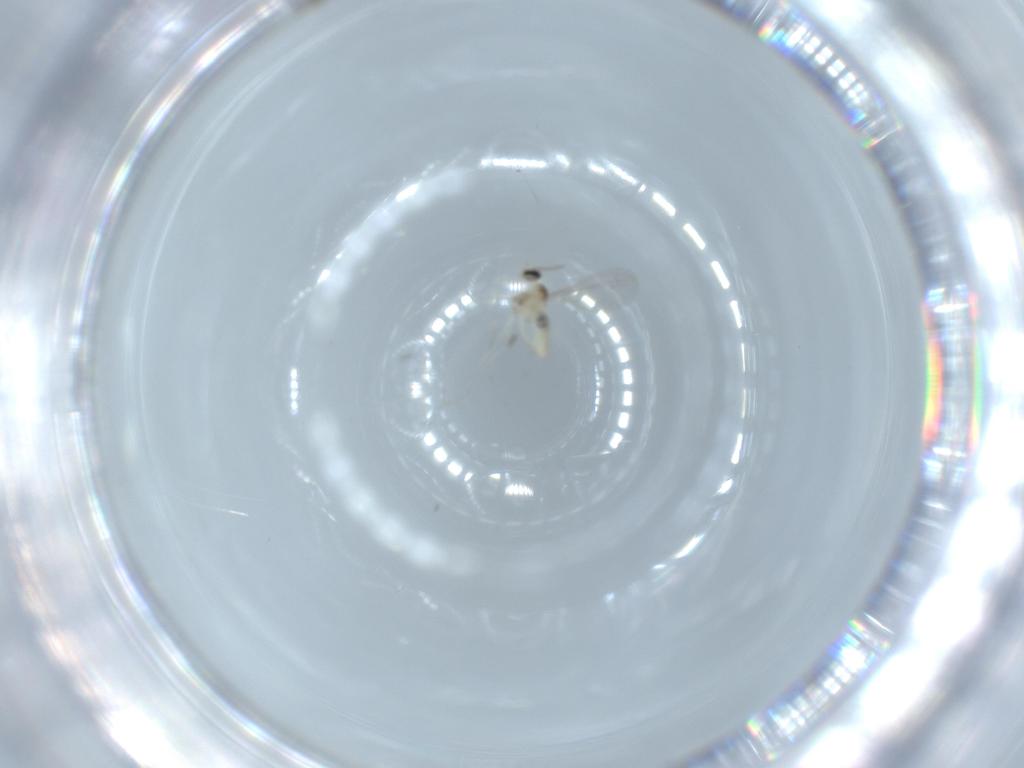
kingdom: Animalia
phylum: Arthropoda
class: Insecta
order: Diptera
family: Cecidomyiidae
